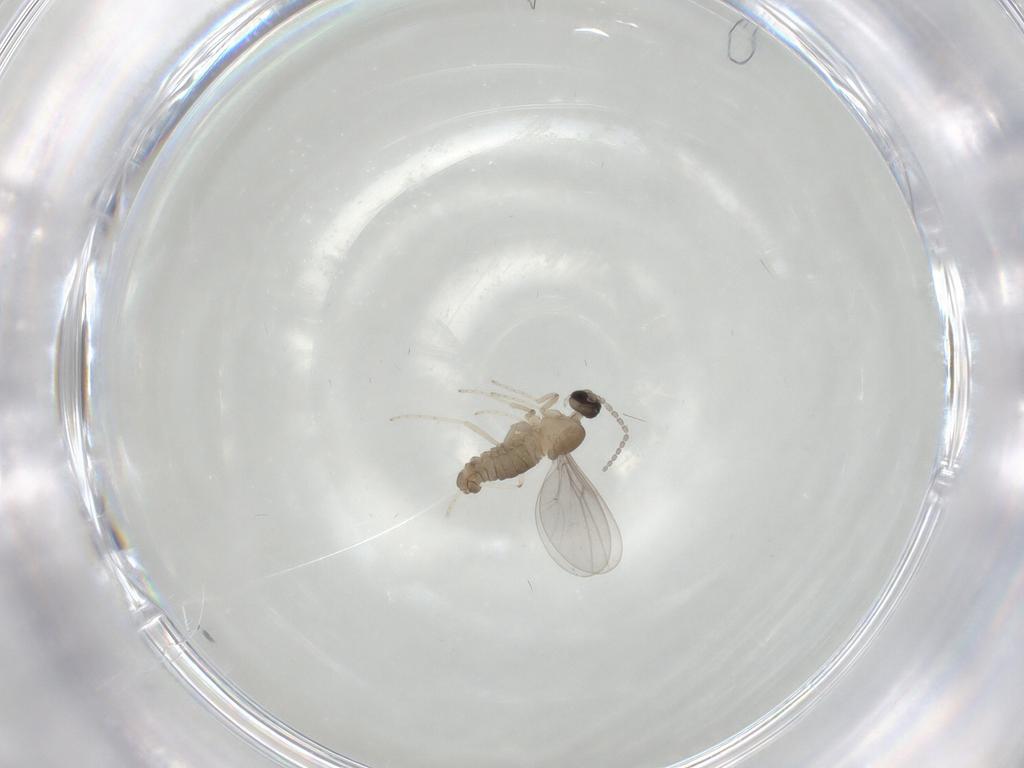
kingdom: Animalia
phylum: Arthropoda
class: Insecta
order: Diptera
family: Cecidomyiidae
